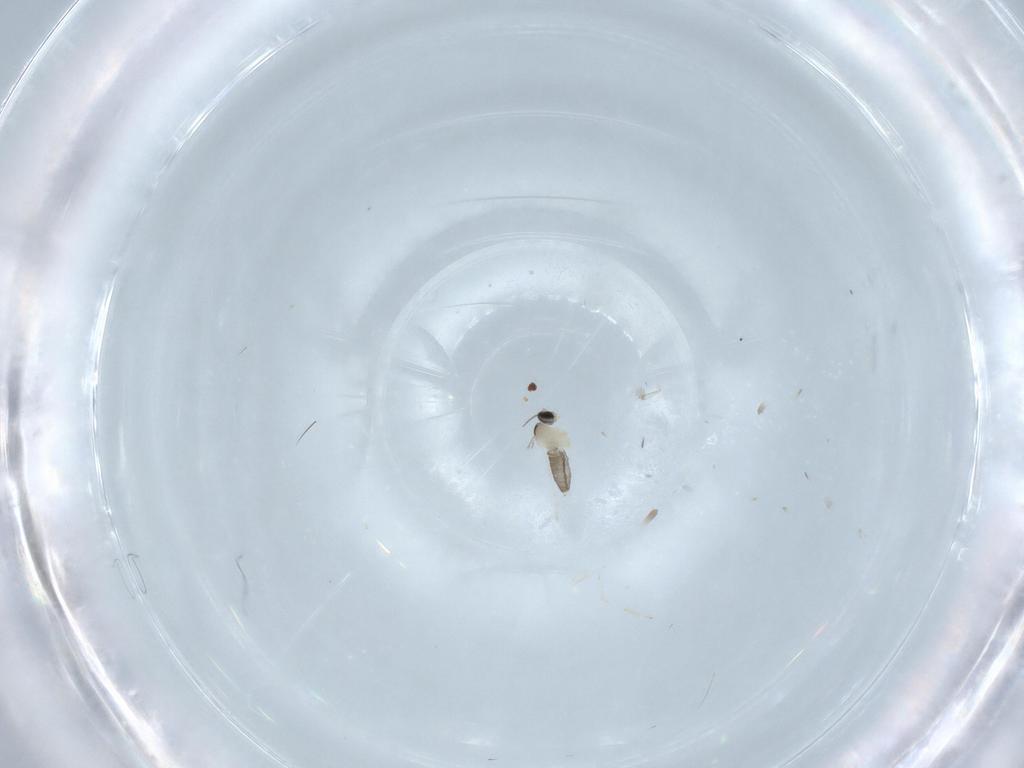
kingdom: Animalia
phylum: Arthropoda
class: Insecta
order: Diptera
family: Cecidomyiidae
